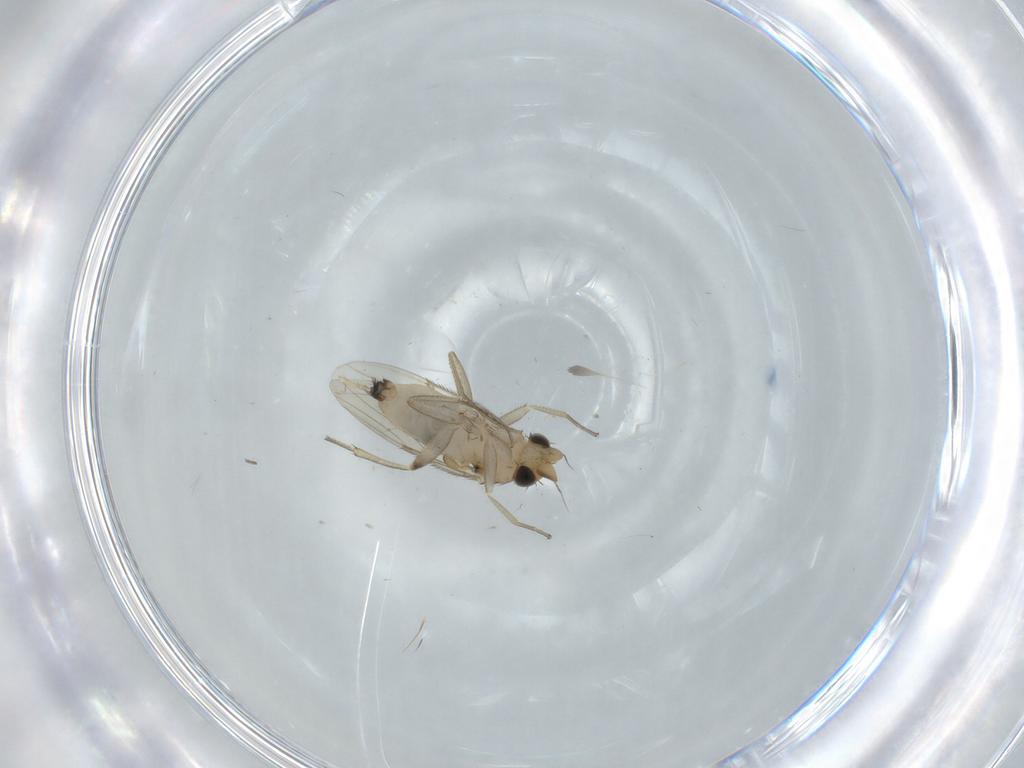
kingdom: Animalia
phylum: Arthropoda
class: Insecta
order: Diptera
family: Phoridae
